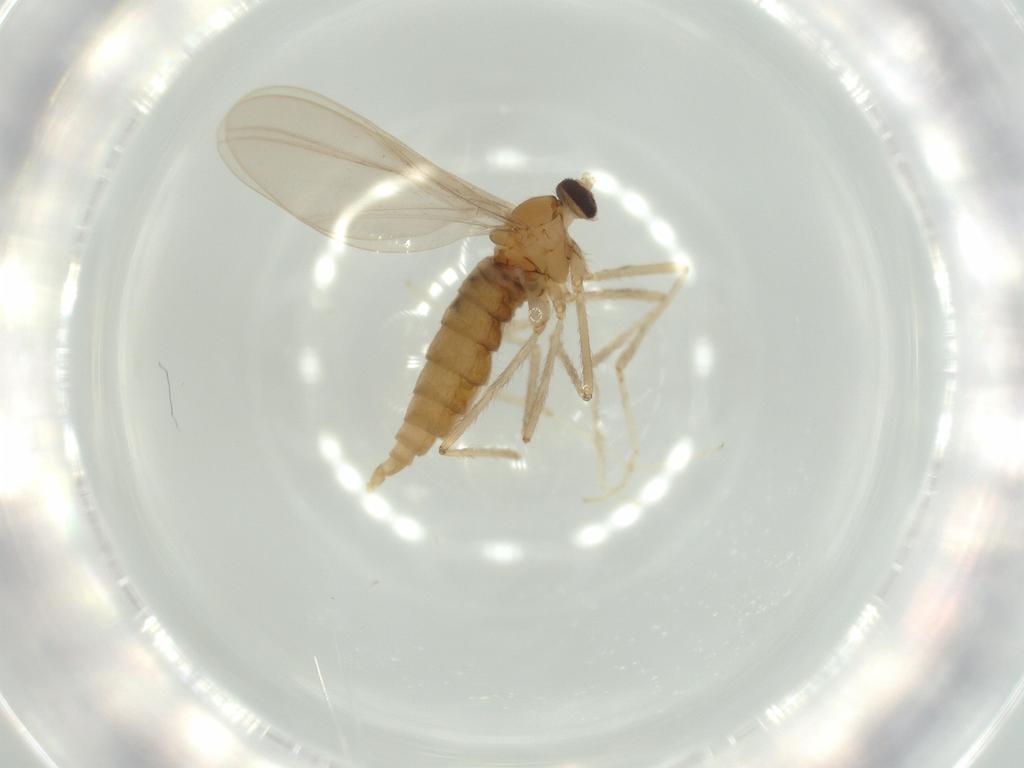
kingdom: Animalia
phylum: Arthropoda
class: Insecta
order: Diptera
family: Cecidomyiidae
